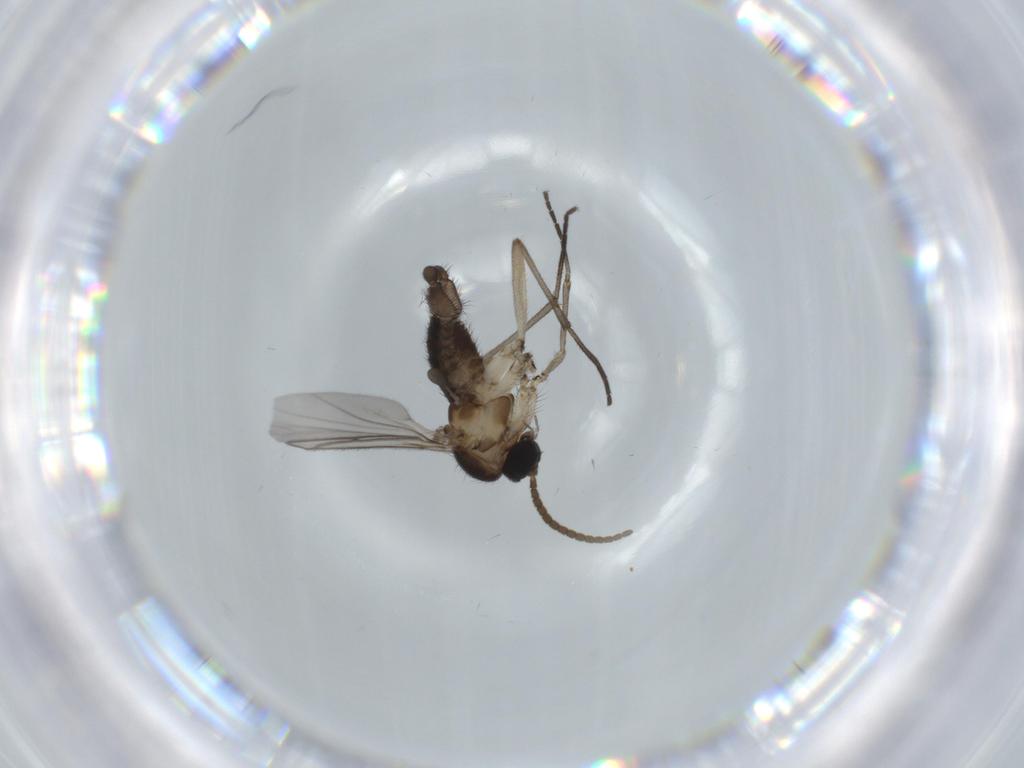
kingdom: Animalia
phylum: Arthropoda
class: Insecta
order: Diptera
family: Sciaridae
